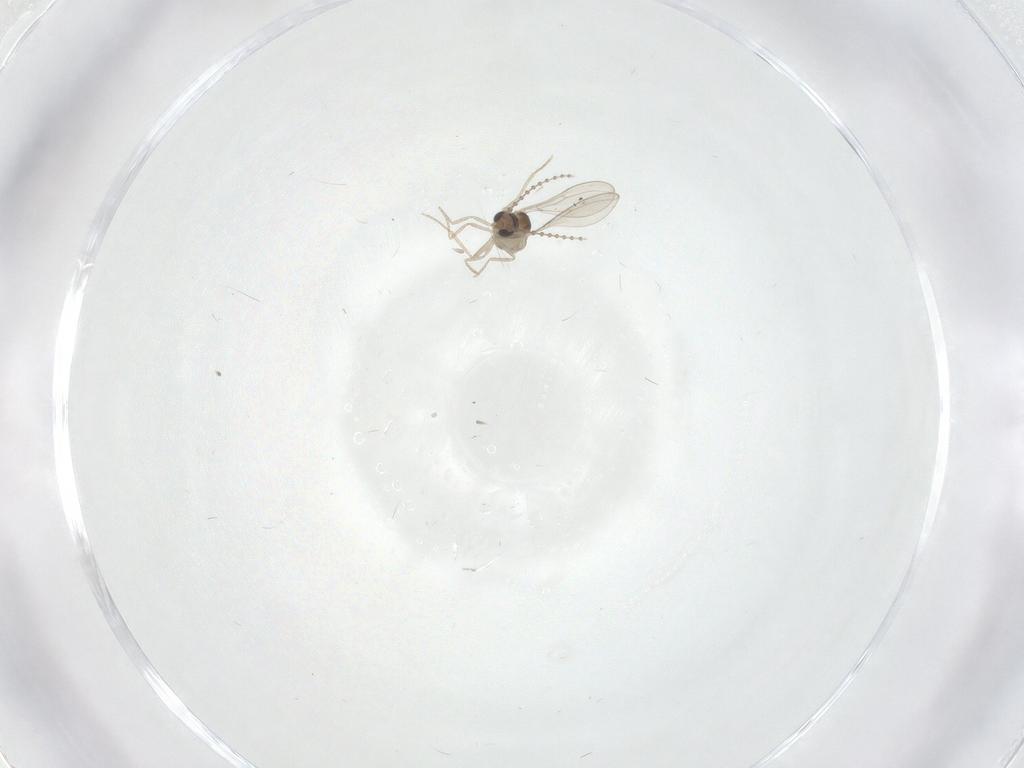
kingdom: Animalia
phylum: Arthropoda
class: Insecta
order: Diptera
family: Cecidomyiidae
